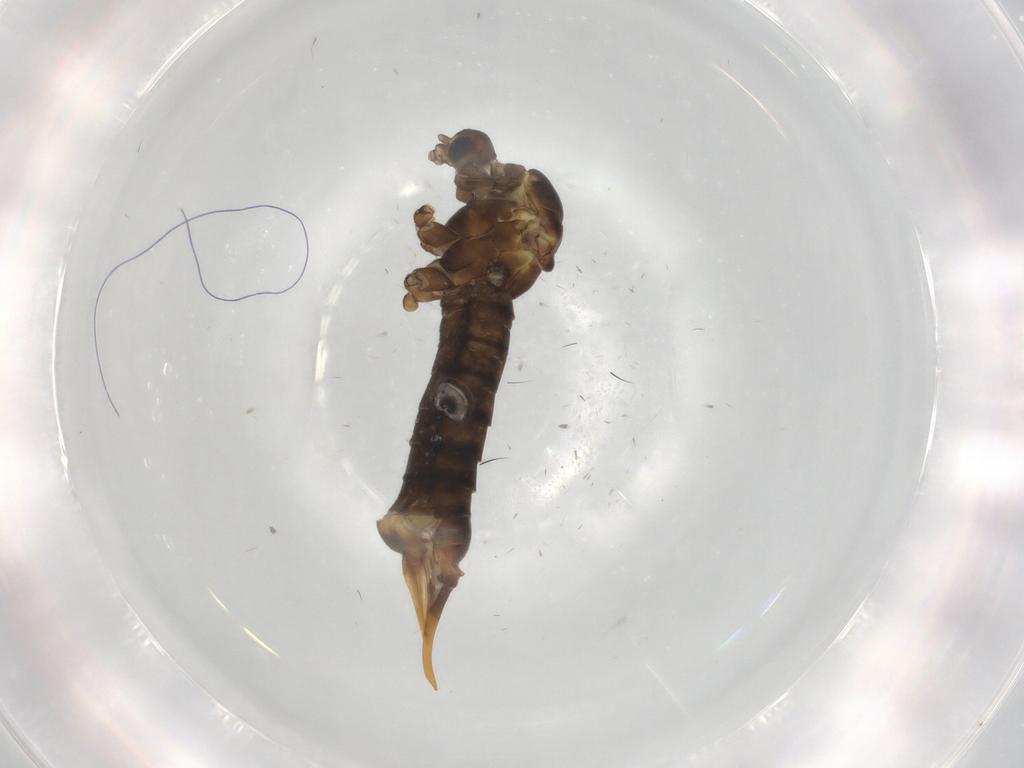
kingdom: Animalia
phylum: Arthropoda
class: Insecta
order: Diptera
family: Limoniidae
